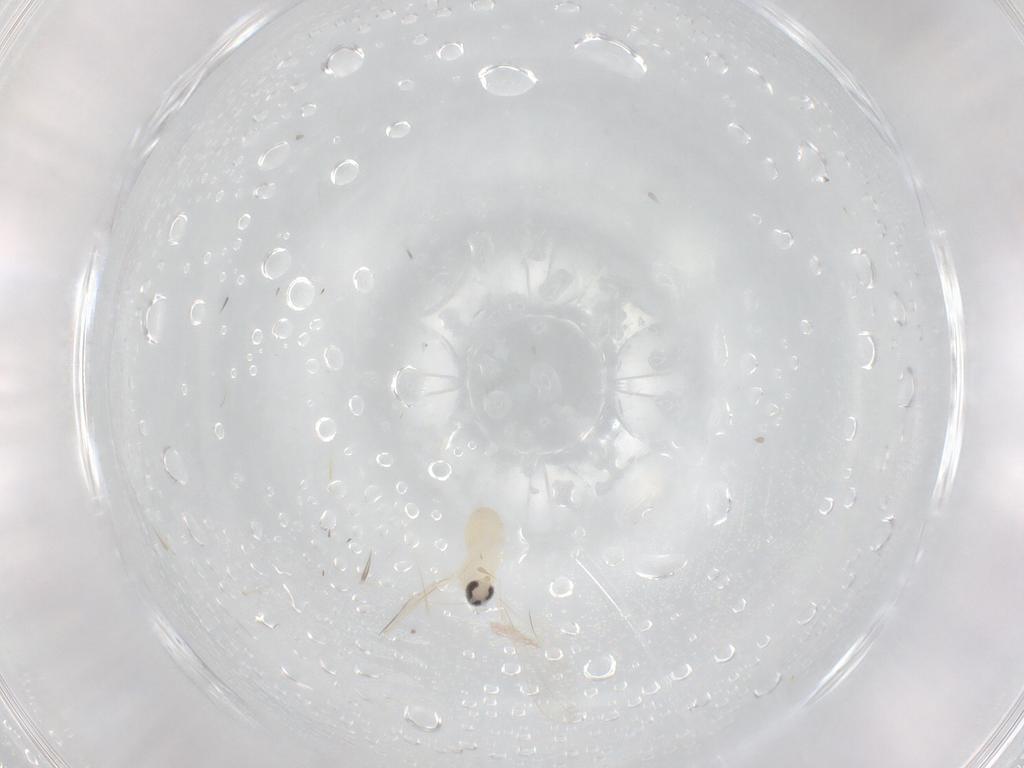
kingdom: Animalia
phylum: Arthropoda
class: Insecta
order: Diptera
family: Cecidomyiidae
